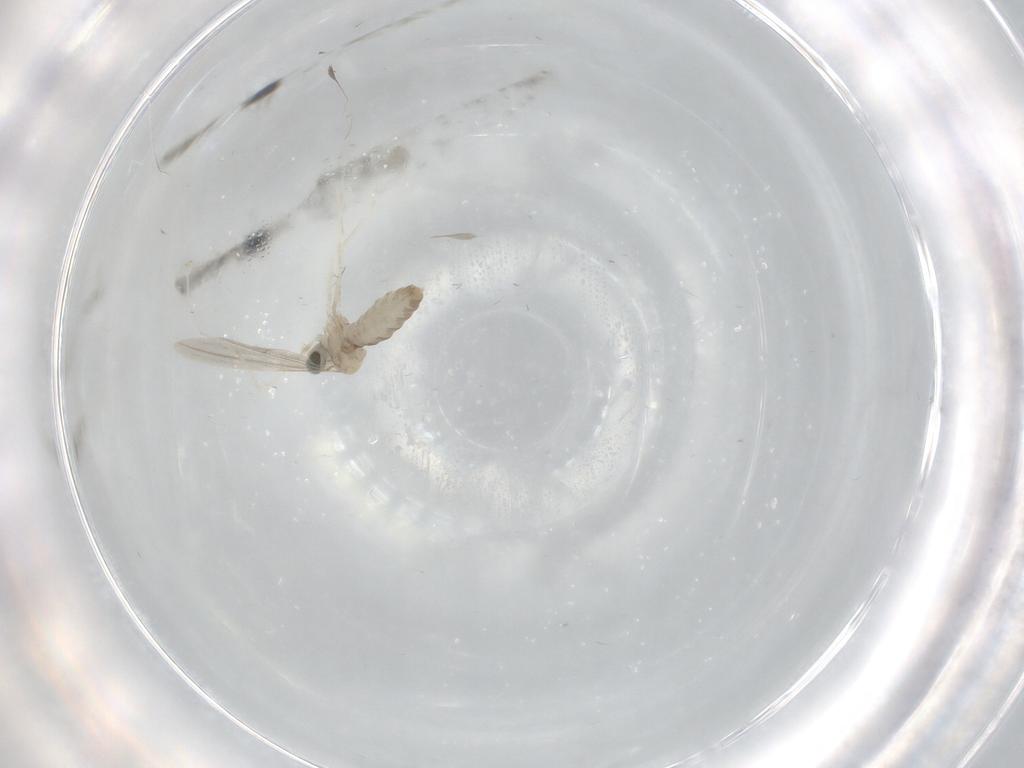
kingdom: Animalia
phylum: Arthropoda
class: Insecta
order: Diptera
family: Cecidomyiidae
